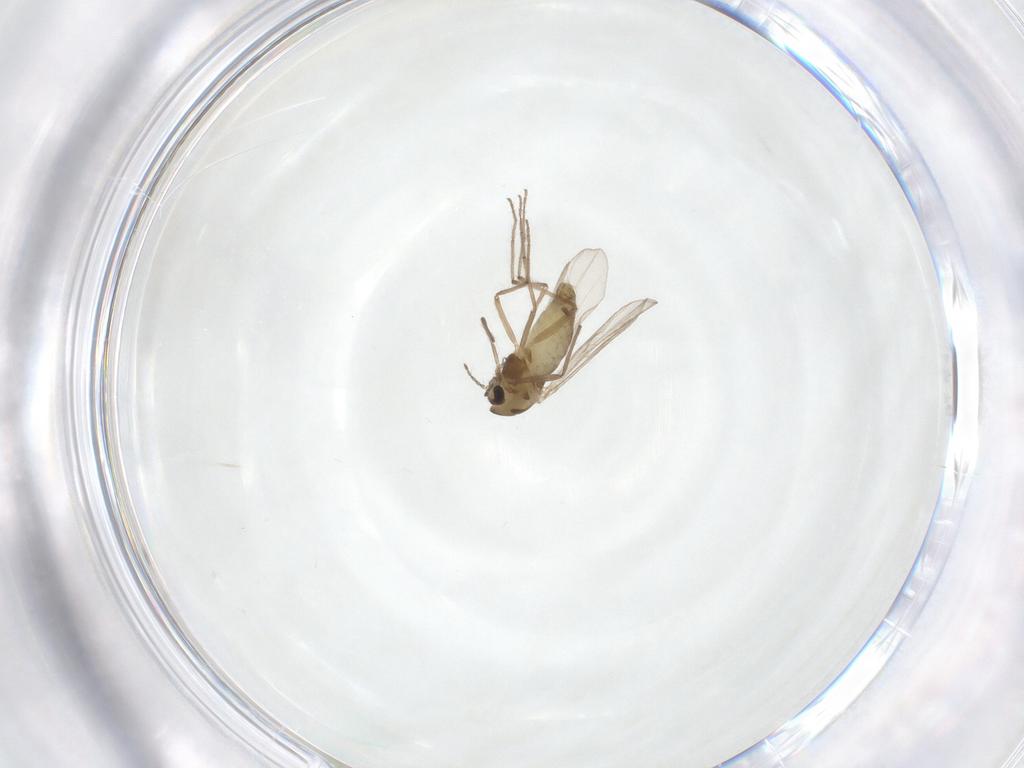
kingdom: Animalia
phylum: Arthropoda
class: Insecta
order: Diptera
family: Chironomidae
